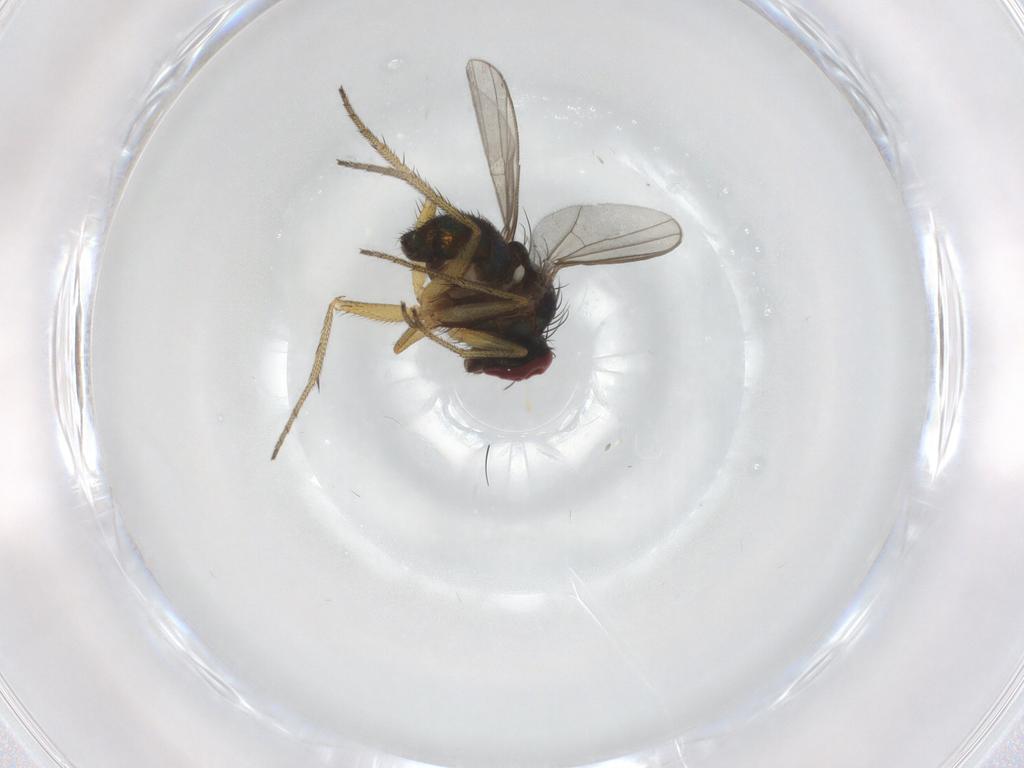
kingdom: Animalia
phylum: Arthropoda
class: Insecta
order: Diptera
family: Dolichopodidae
